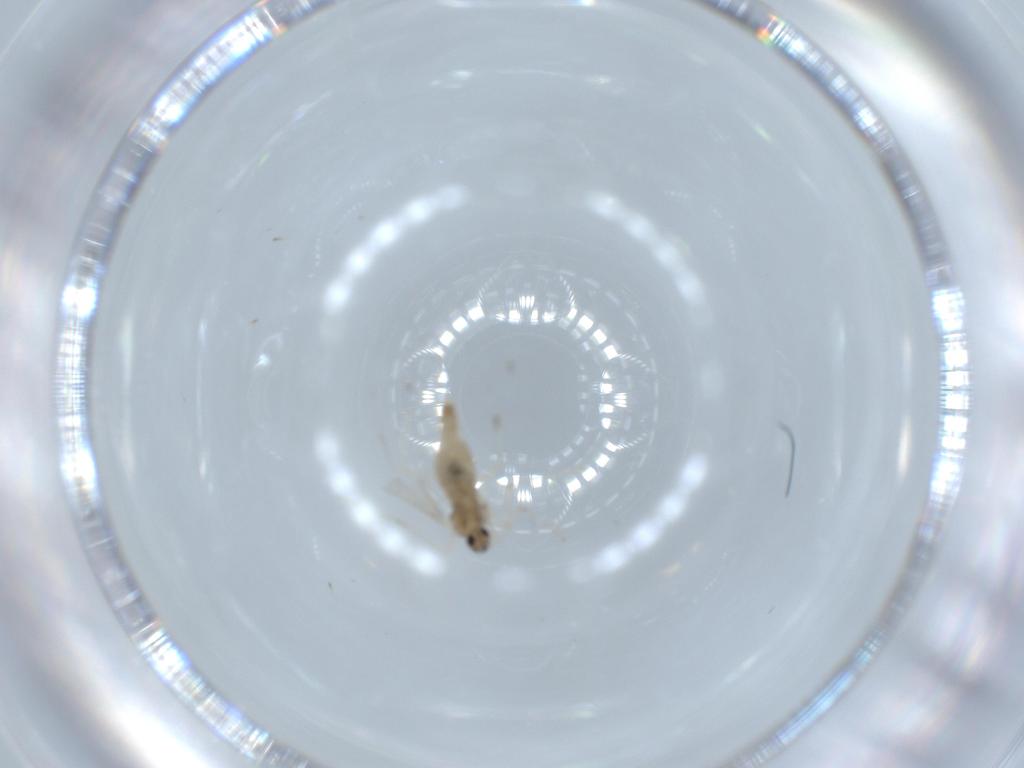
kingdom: Animalia
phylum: Arthropoda
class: Insecta
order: Diptera
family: Cecidomyiidae
